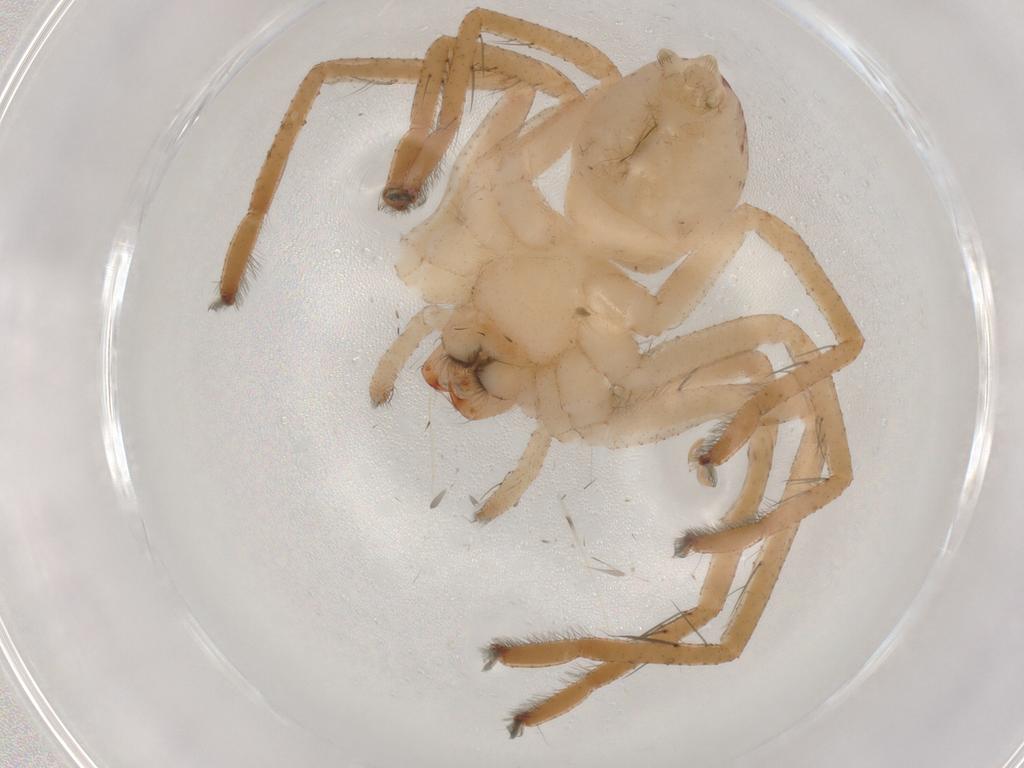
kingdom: Animalia
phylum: Arthropoda
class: Arachnida
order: Araneae
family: Sparassidae
